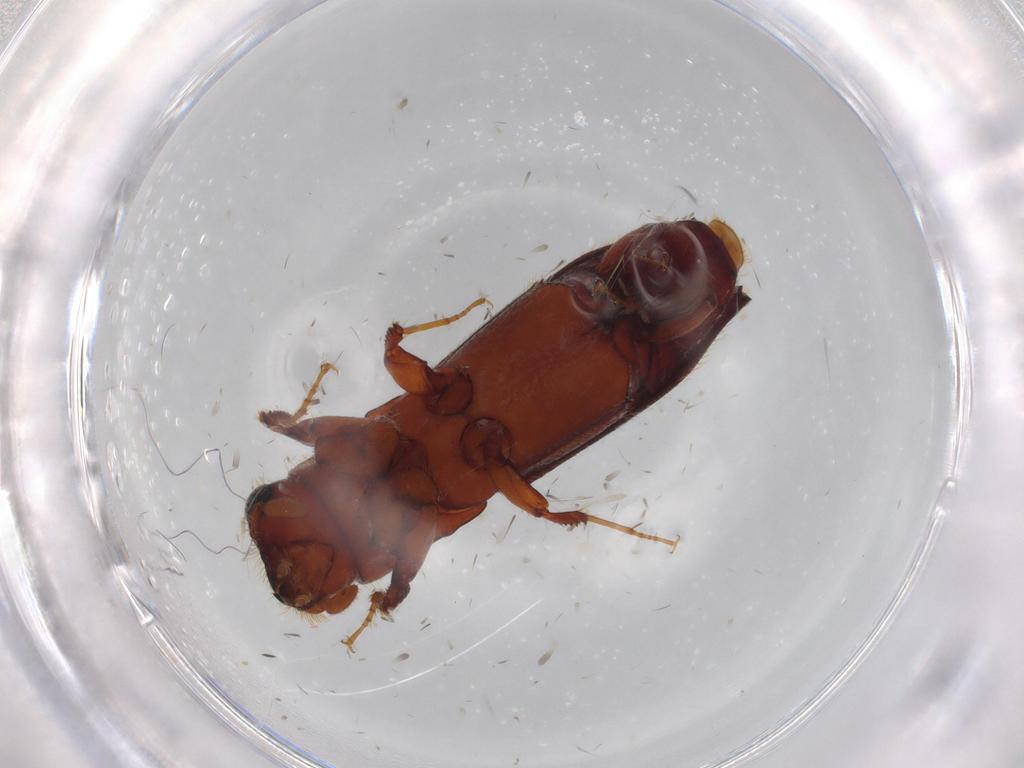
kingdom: Animalia
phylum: Arthropoda
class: Insecta
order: Coleoptera
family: Curculionidae
